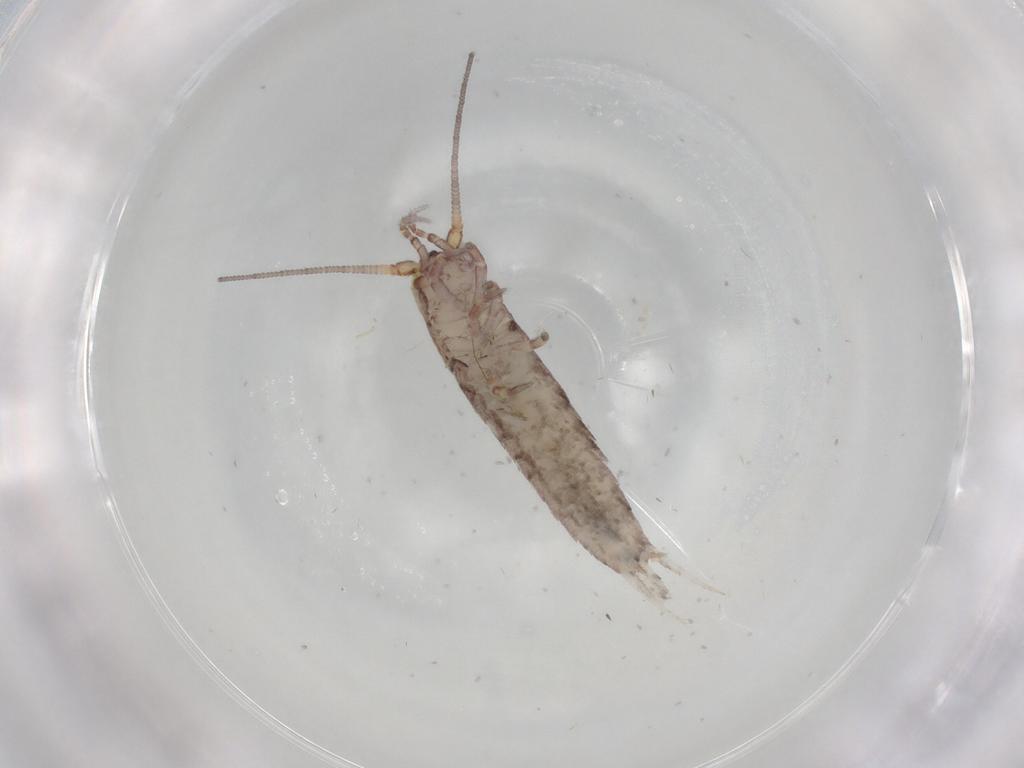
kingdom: Animalia
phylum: Arthropoda
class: Insecta
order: Archaeognatha
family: Machilidae
